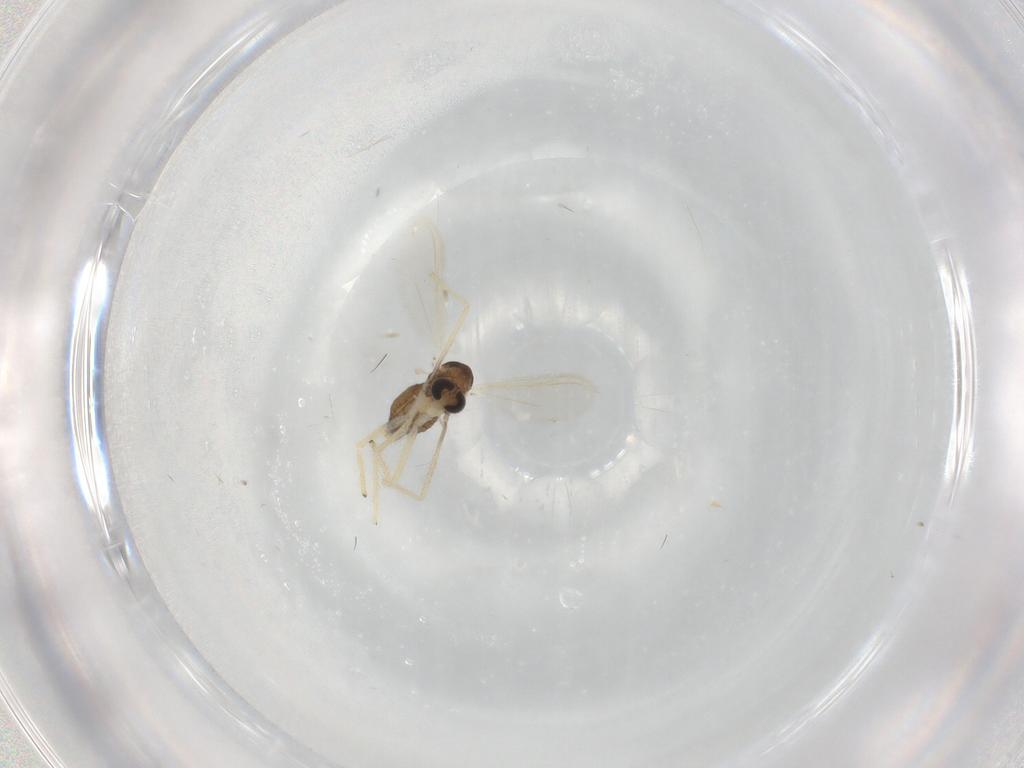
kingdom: Animalia
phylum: Arthropoda
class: Insecta
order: Diptera
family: Chironomidae
